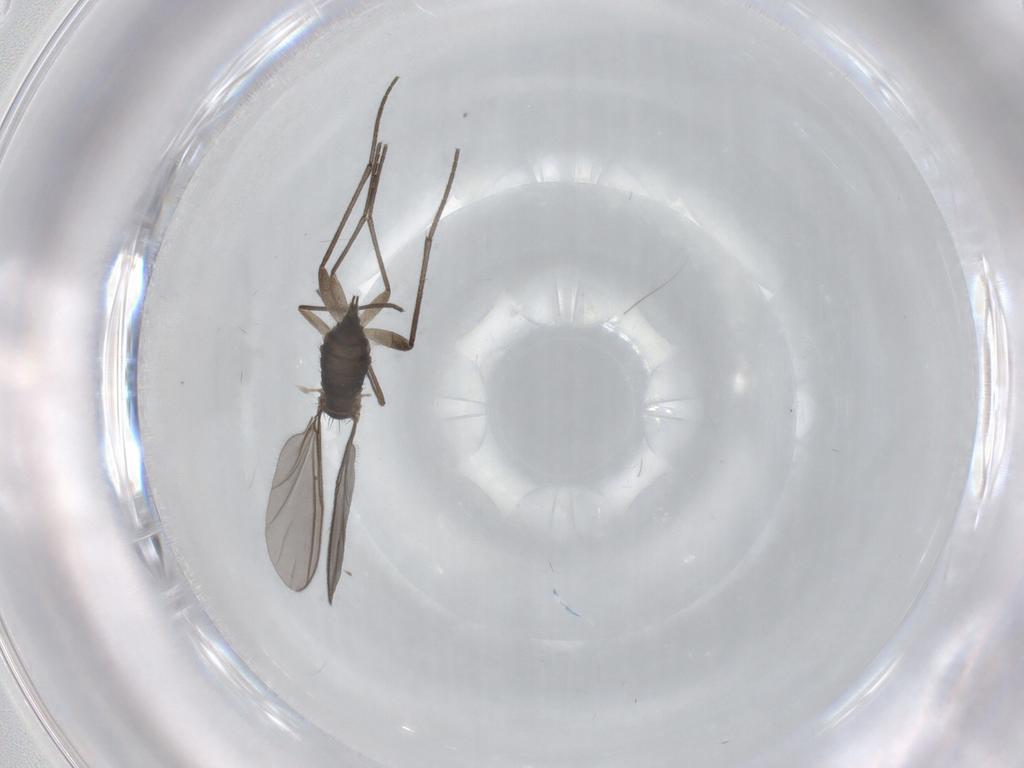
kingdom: Animalia
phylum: Arthropoda
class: Insecta
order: Diptera
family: Sciaridae
